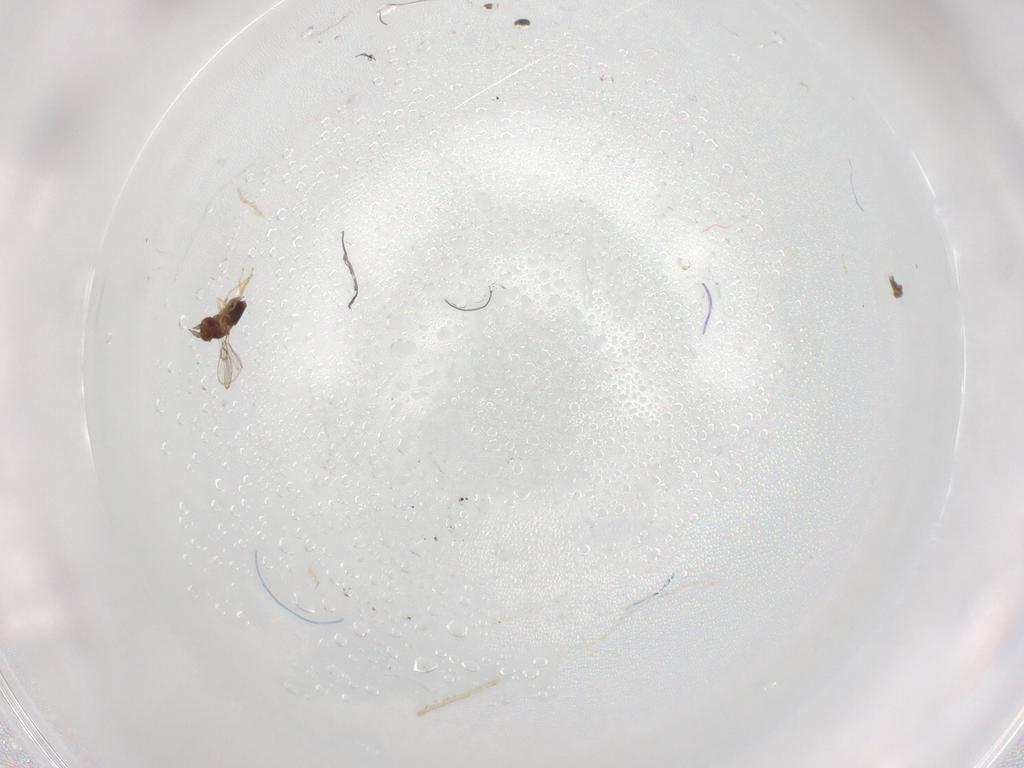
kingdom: Animalia
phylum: Arthropoda
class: Insecta
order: Hymenoptera
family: Trichogrammatidae
